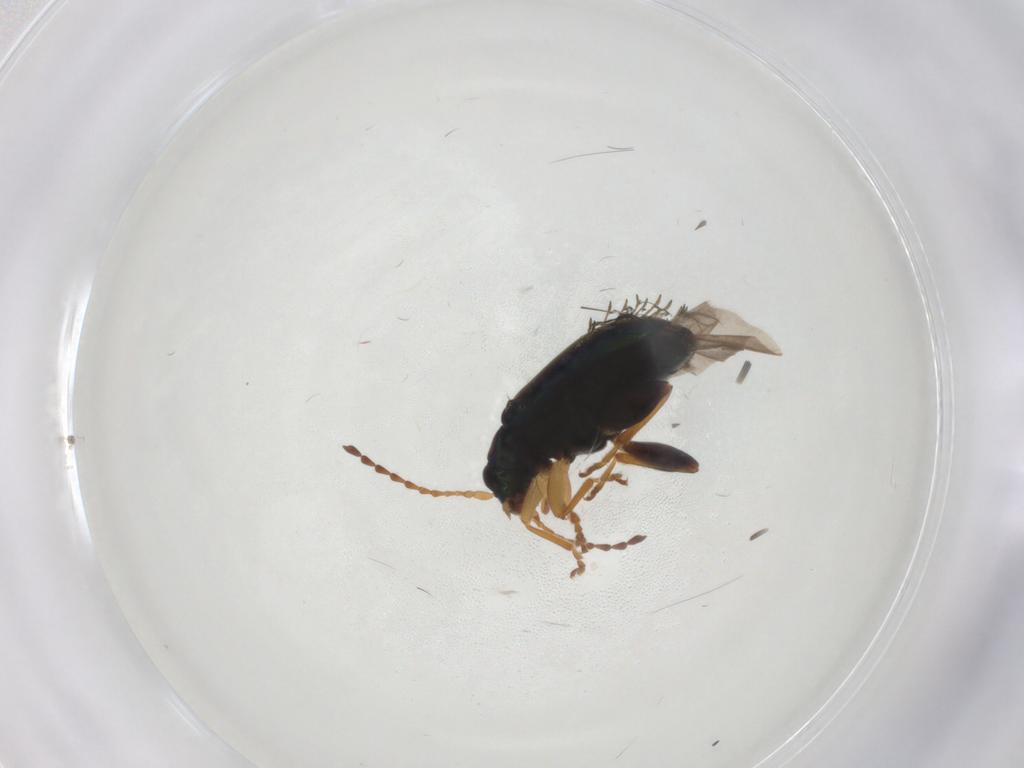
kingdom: Animalia
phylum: Arthropoda
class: Insecta
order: Coleoptera
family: Chrysomelidae
